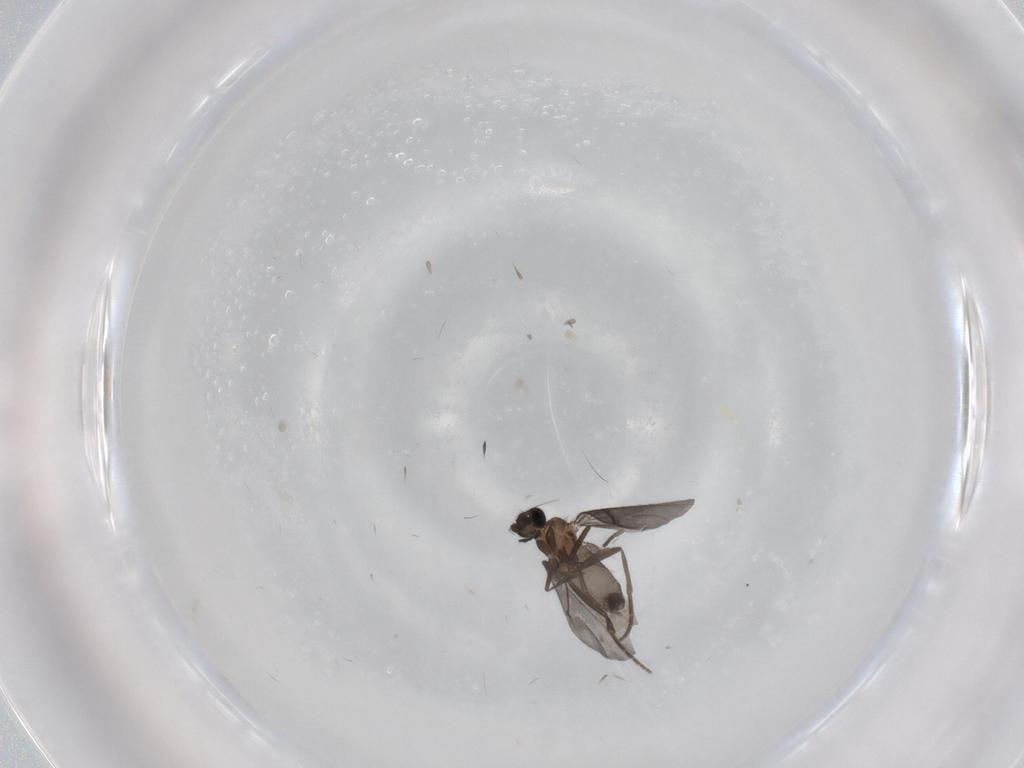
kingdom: Animalia
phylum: Arthropoda
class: Insecta
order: Diptera
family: Phoridae
